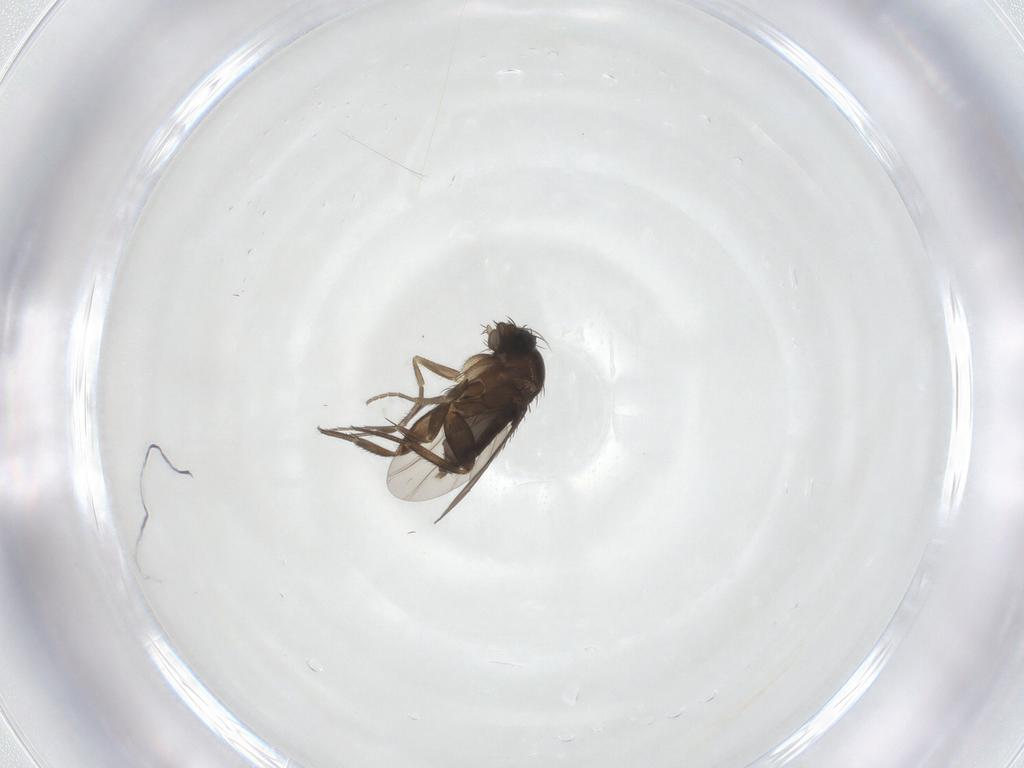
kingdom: Animalia
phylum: Arthropoda
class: Insecta
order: Diptera
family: Phoridae
